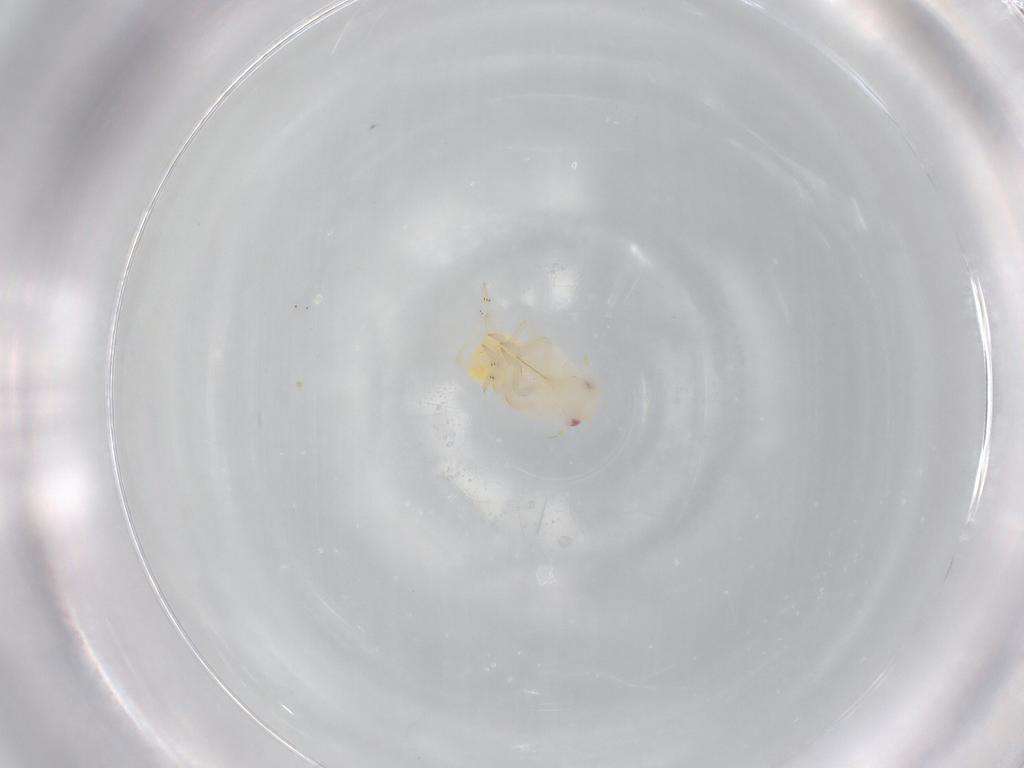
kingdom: Animalia
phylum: Arthropoda
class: Insecta
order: Hemiptera
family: Flatidae
